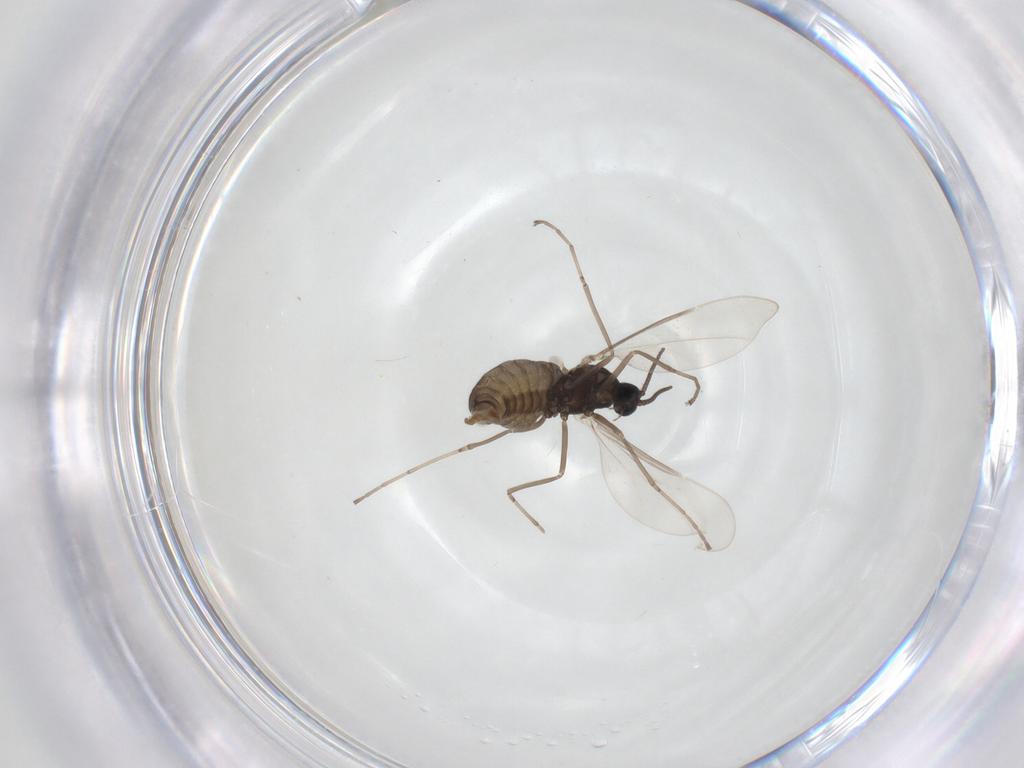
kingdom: Animalia
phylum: Arthropoda
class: Insecta
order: Diptera
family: Cecidomyiidae
